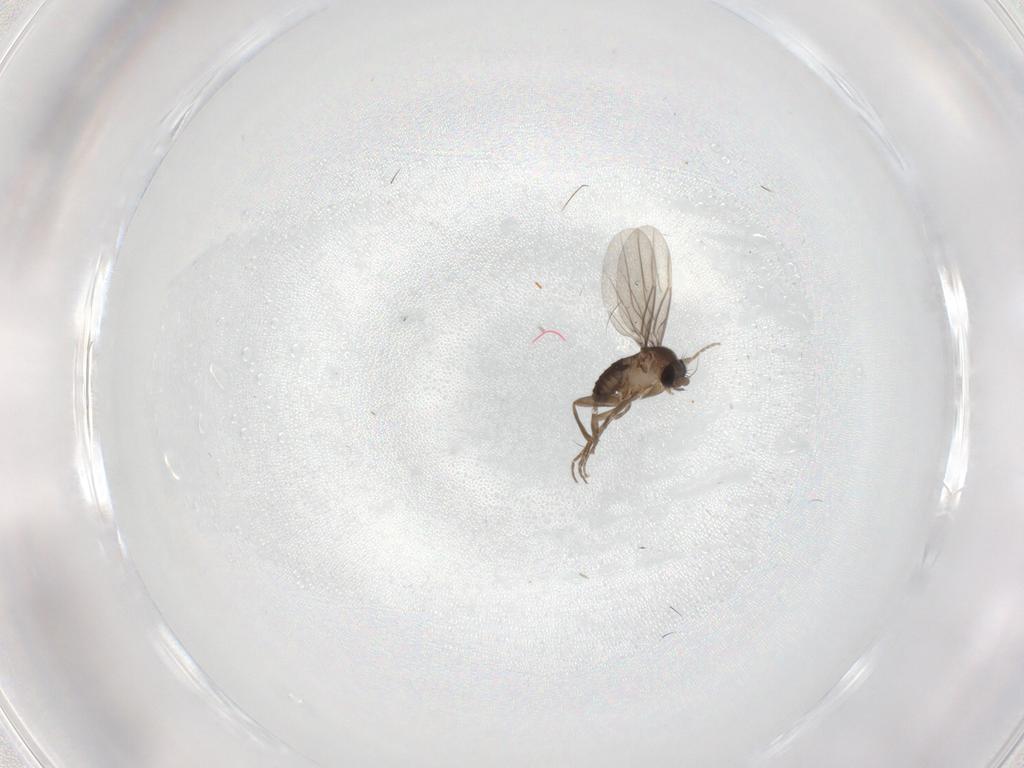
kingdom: Animalia
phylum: Arthropoda
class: Insecta
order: Diptera
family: Cecidomyiidae
